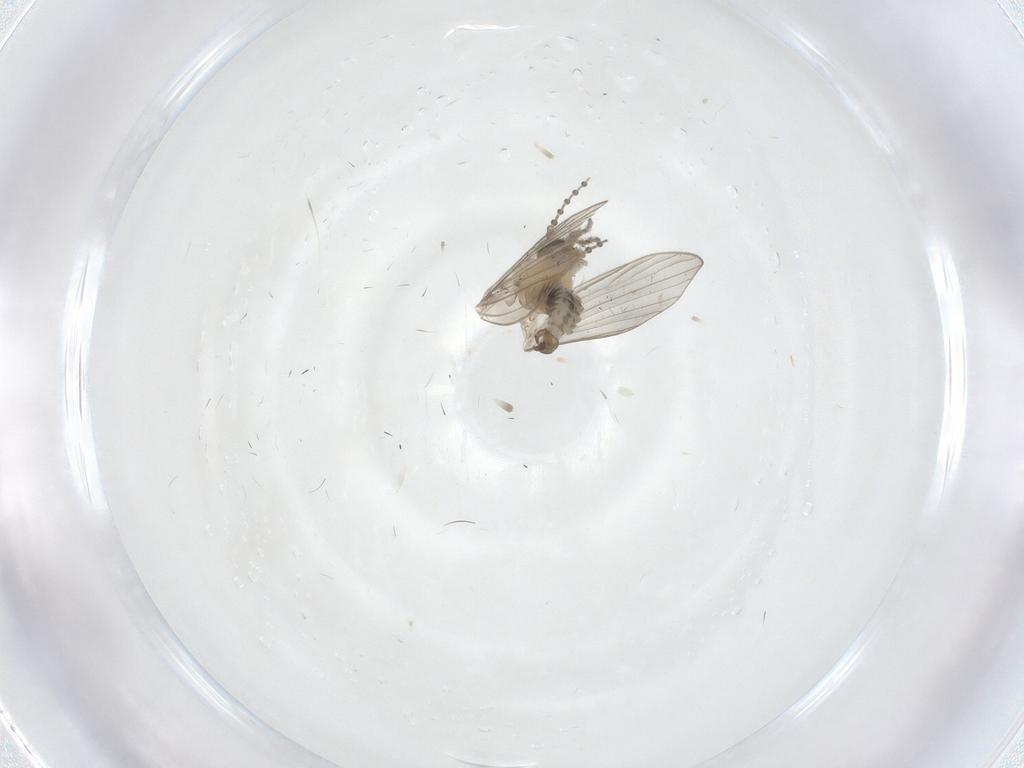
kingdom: Animalia
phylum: Arthropoda
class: Insecta
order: Diptera
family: Psychodidae
